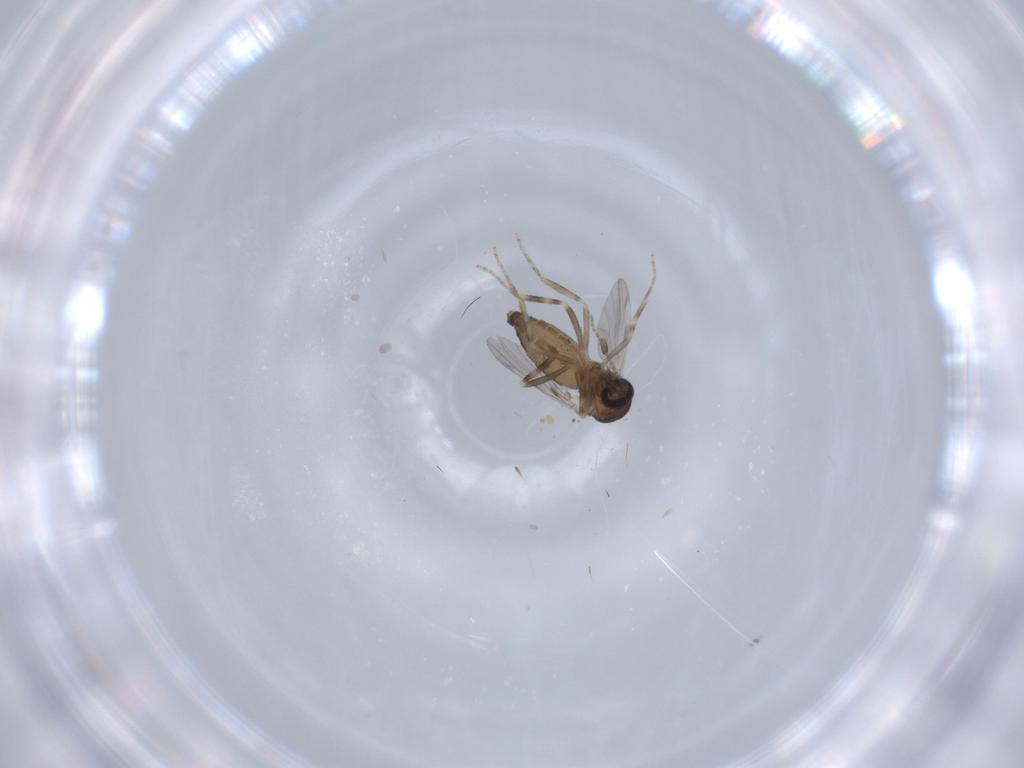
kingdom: Animalia
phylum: Arthropoda
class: Insecta
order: Diptera
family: Ceratopogonidae
